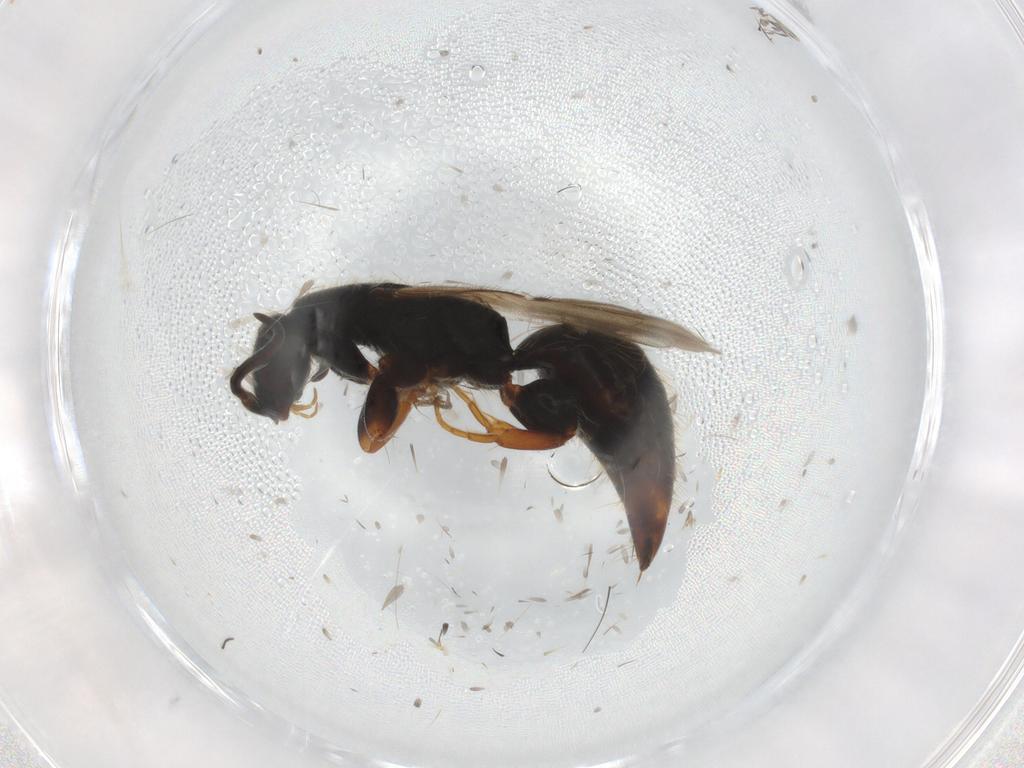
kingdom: Animalia
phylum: Arthropoda
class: Insecta
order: Hymenoptera
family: Bethylidae
